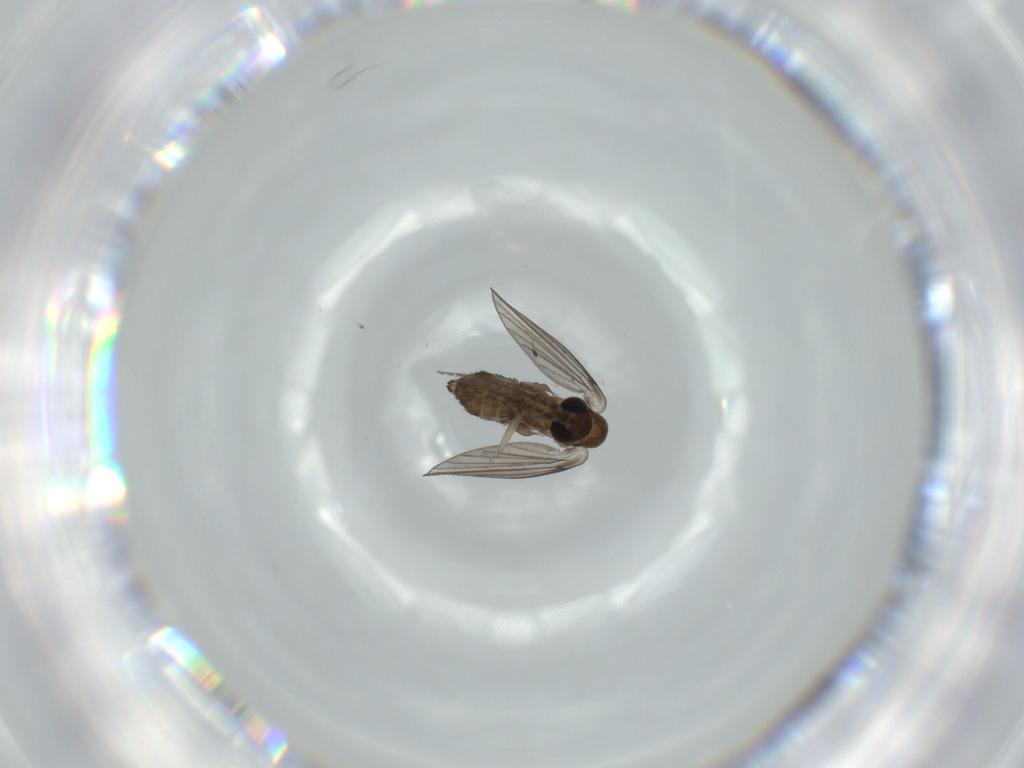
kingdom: Animalia
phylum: Arthropoda
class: Insecta
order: Diptera
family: Psychodidae
